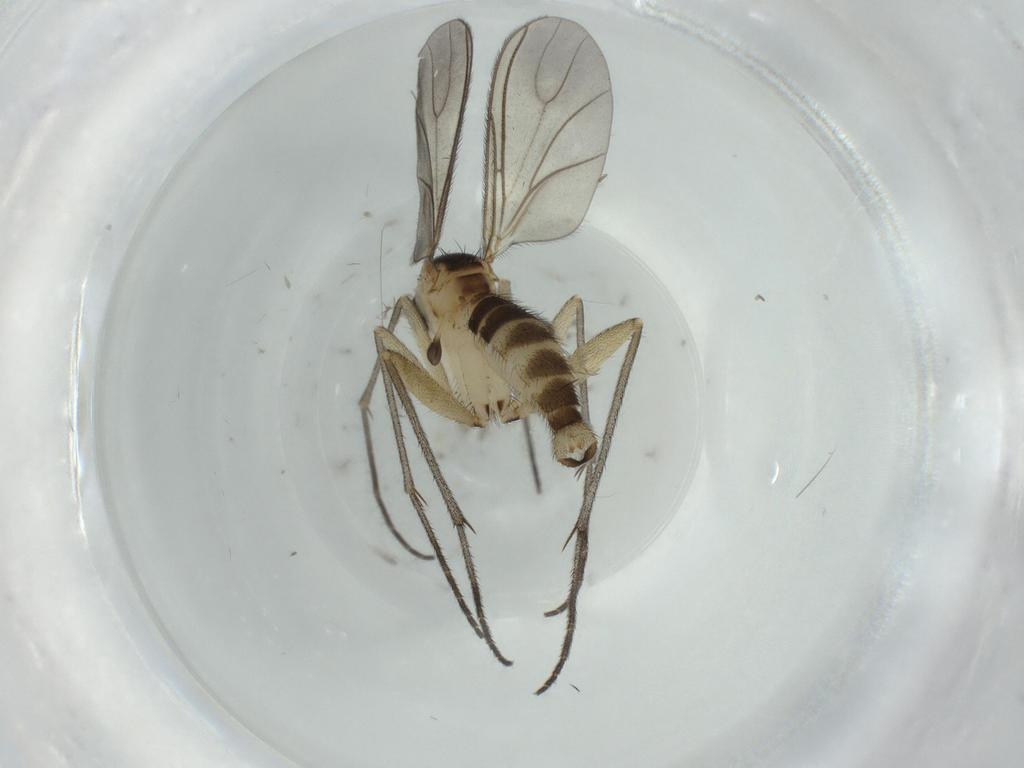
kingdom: Animalia
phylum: Arthropoda
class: Insecta
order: Diptera
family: Sciaridae
